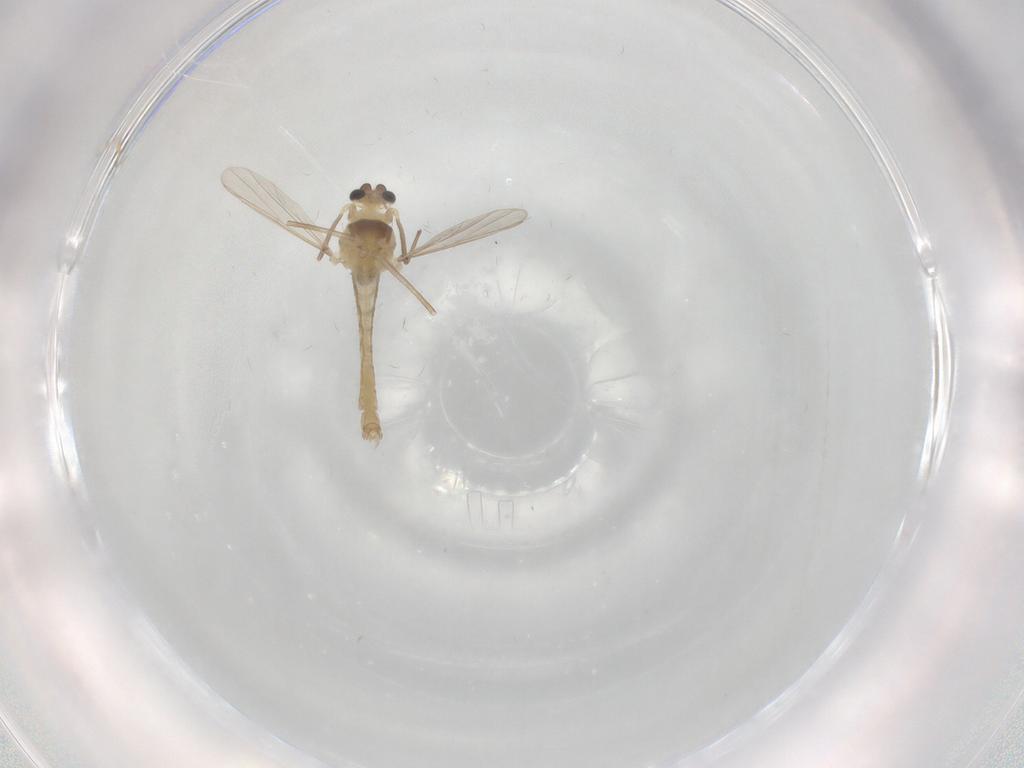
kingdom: Animalia
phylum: Arthropoda
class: Insecta
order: Diptera
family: Chironomidae
